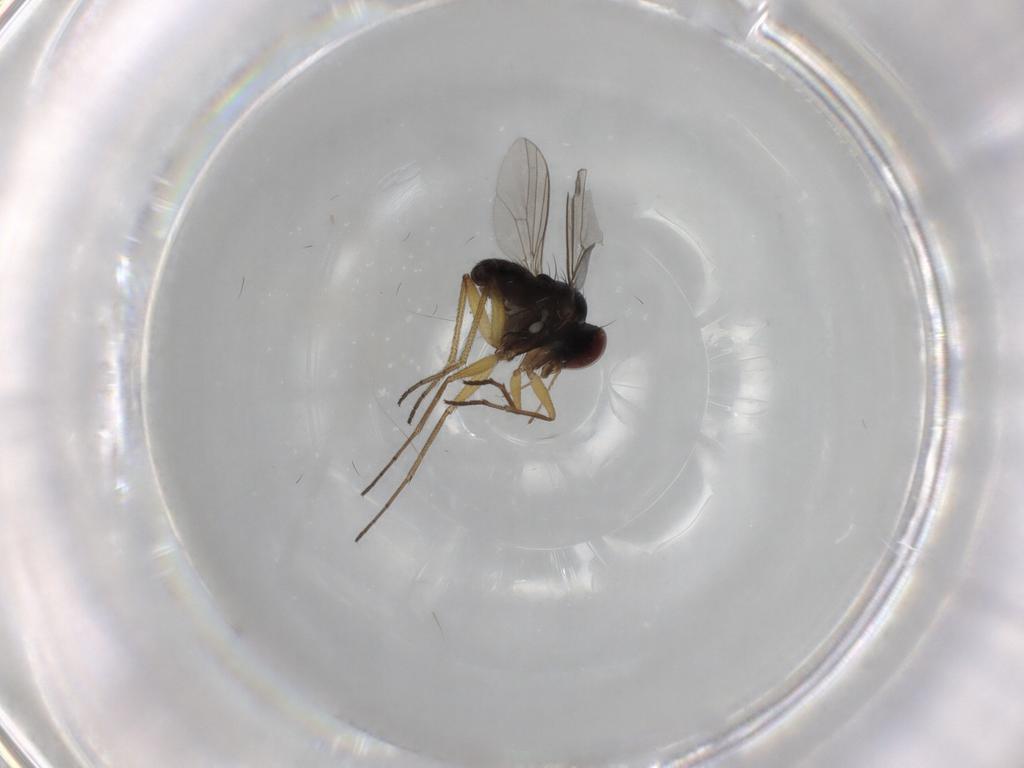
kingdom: Animalia
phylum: Arthropoda
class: Insecta
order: Diptera
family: Dolichopodidae
